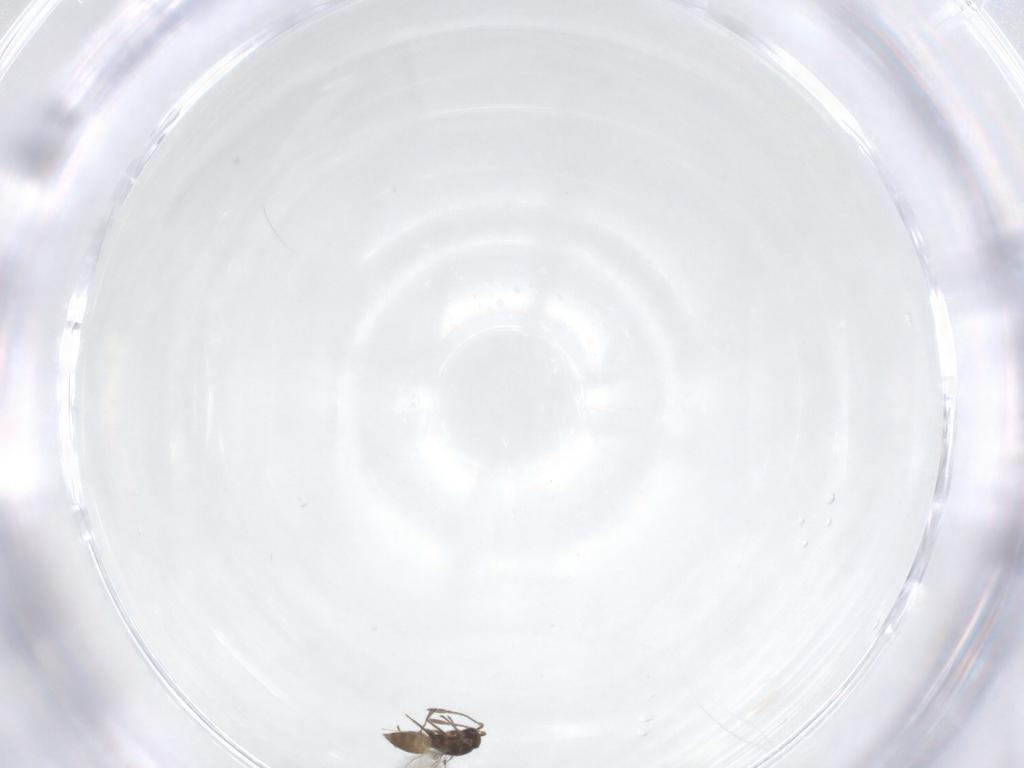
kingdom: Animalia
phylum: Arthropoda
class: Insecta
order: Hymenoptera
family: Mymaridae
